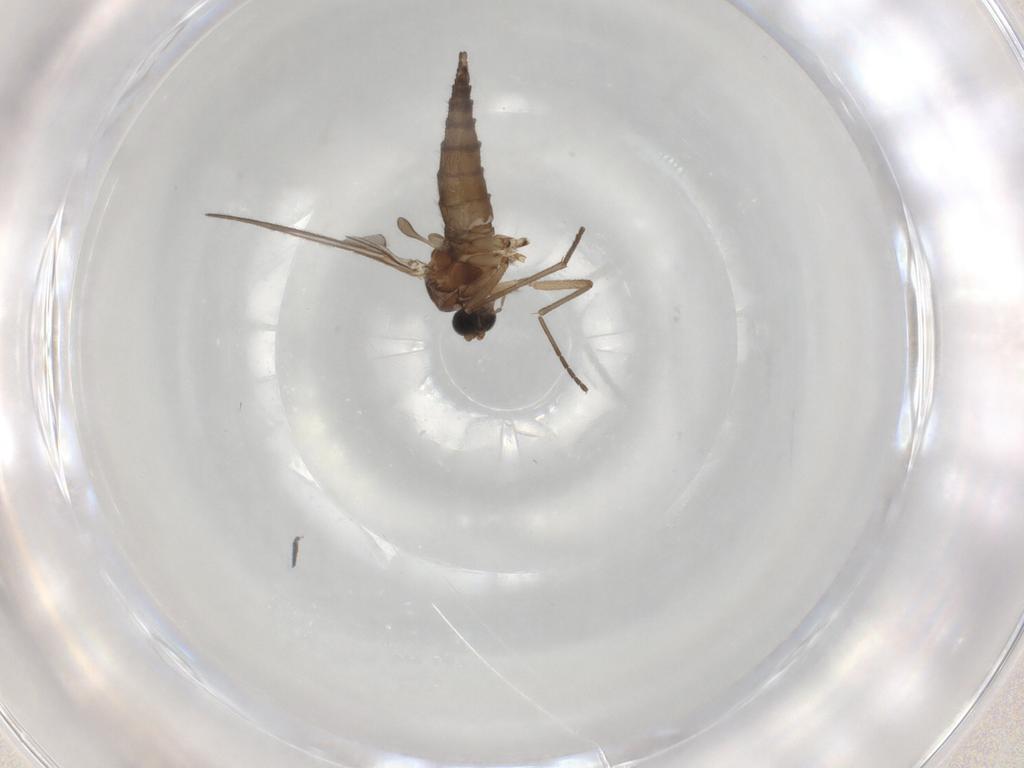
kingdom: Animalia
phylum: Arthropoda
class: Insecta
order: Diptera
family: Sciaridae
